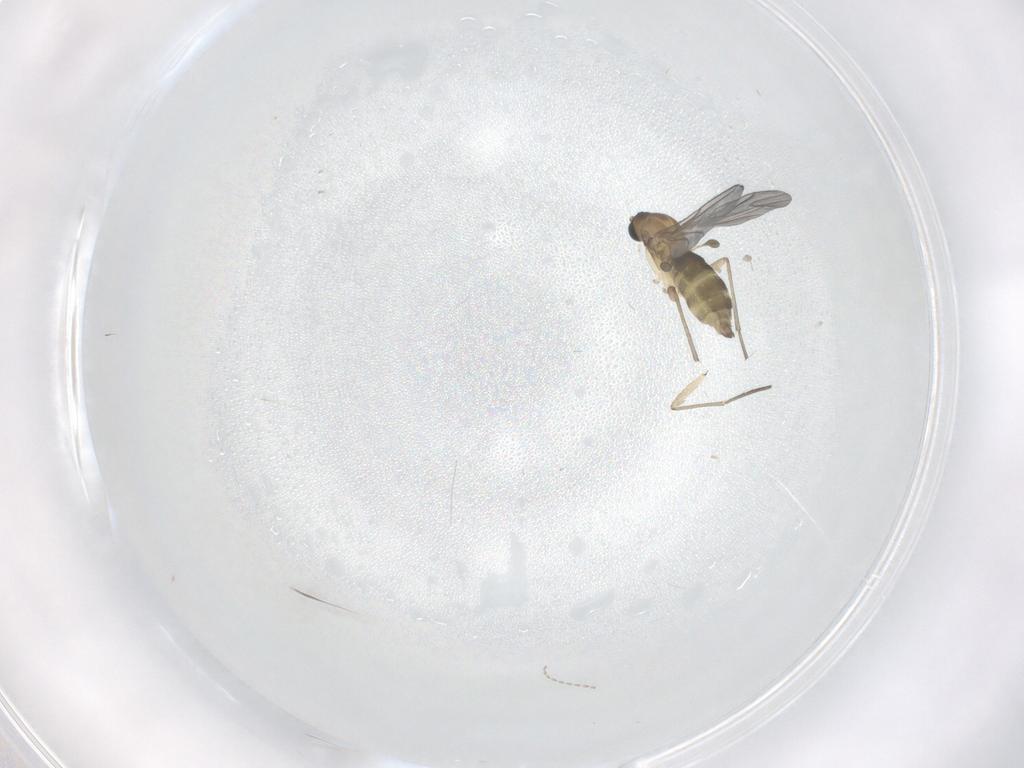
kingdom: Animalia
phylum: Arthropoda
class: Insecta
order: Diptera
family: Sciaridae
